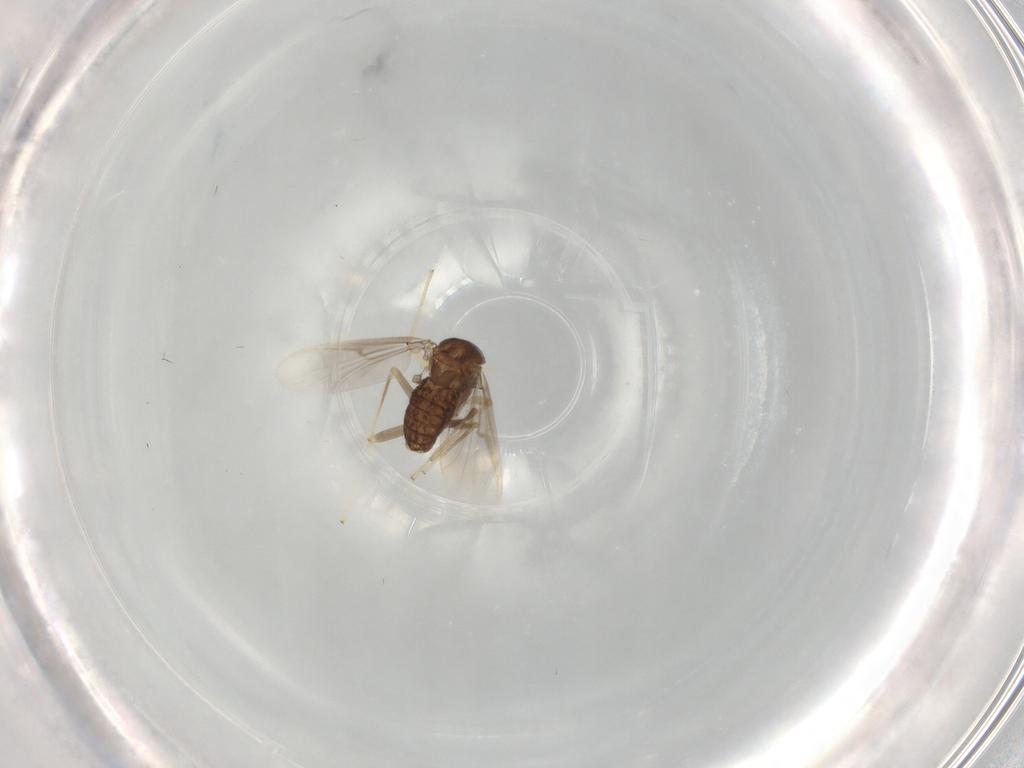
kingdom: Animalia
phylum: Arthropoda
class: Insecta
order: Diptera
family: Chironomidae
